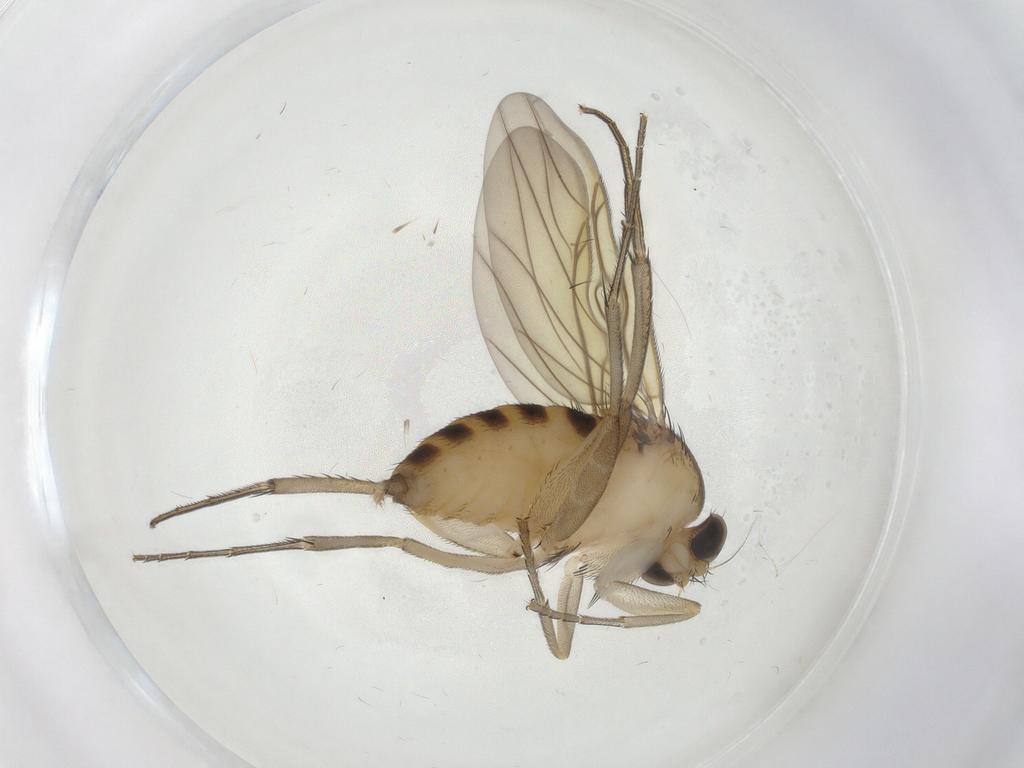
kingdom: Animalia
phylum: Arthropoda
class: Insecta
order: Diptera
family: Phoridae
